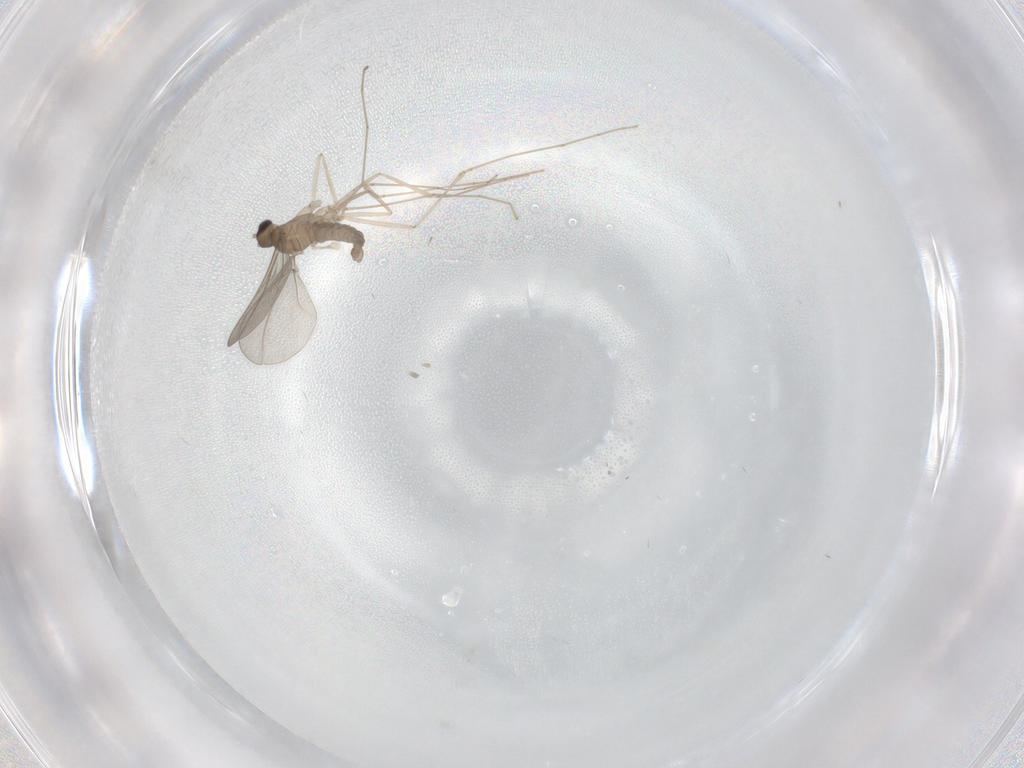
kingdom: Animalia
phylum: Arthropoda
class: Insecta
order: Diptera
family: Cecidomyiidae
